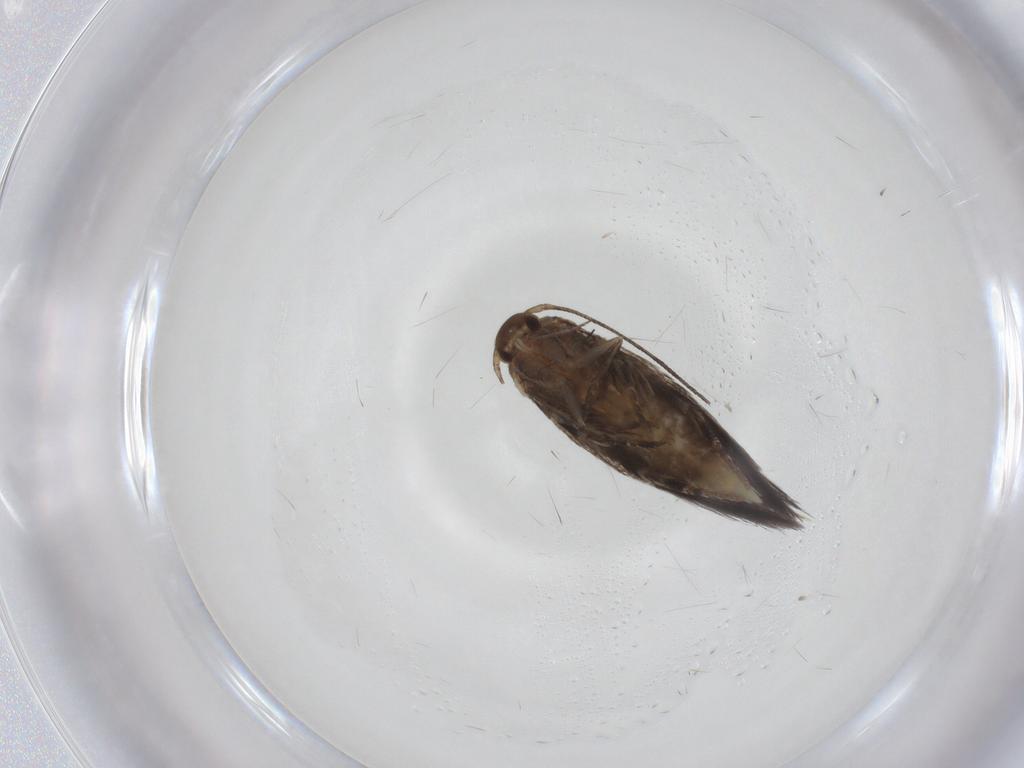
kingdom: Animalia
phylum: Arthropoda
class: Insecta
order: Lepidoptera
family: Elachistidae
